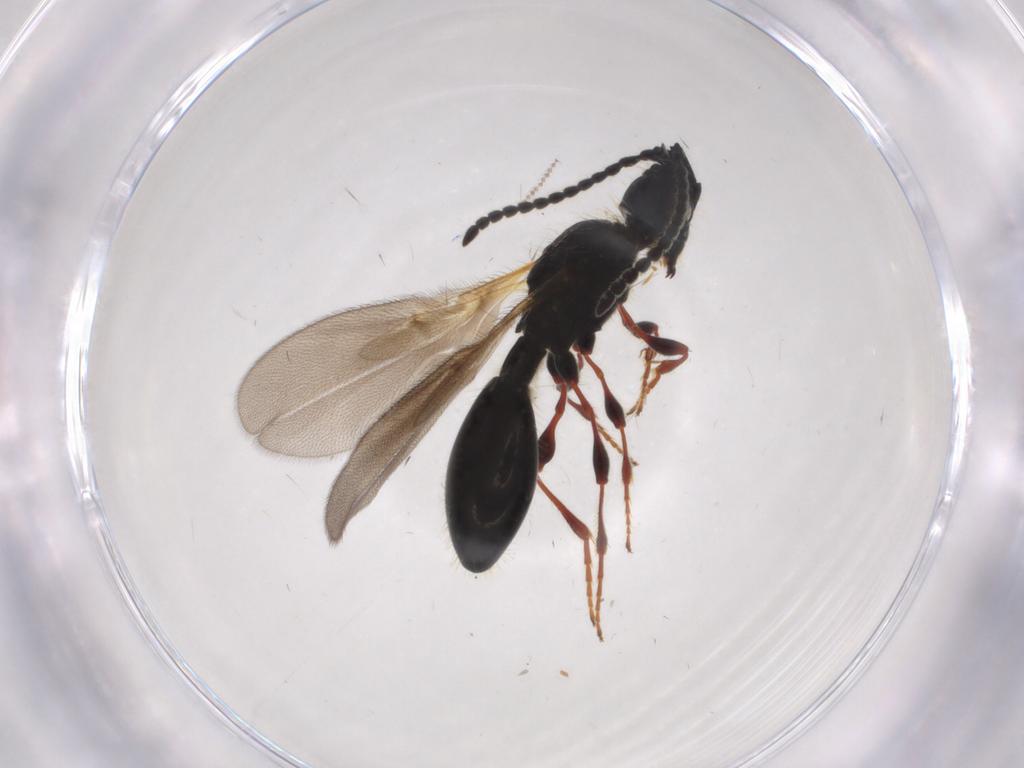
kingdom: Animalia
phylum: Arthropoda
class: Insecta
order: Hymenoptera
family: Diapriidae
